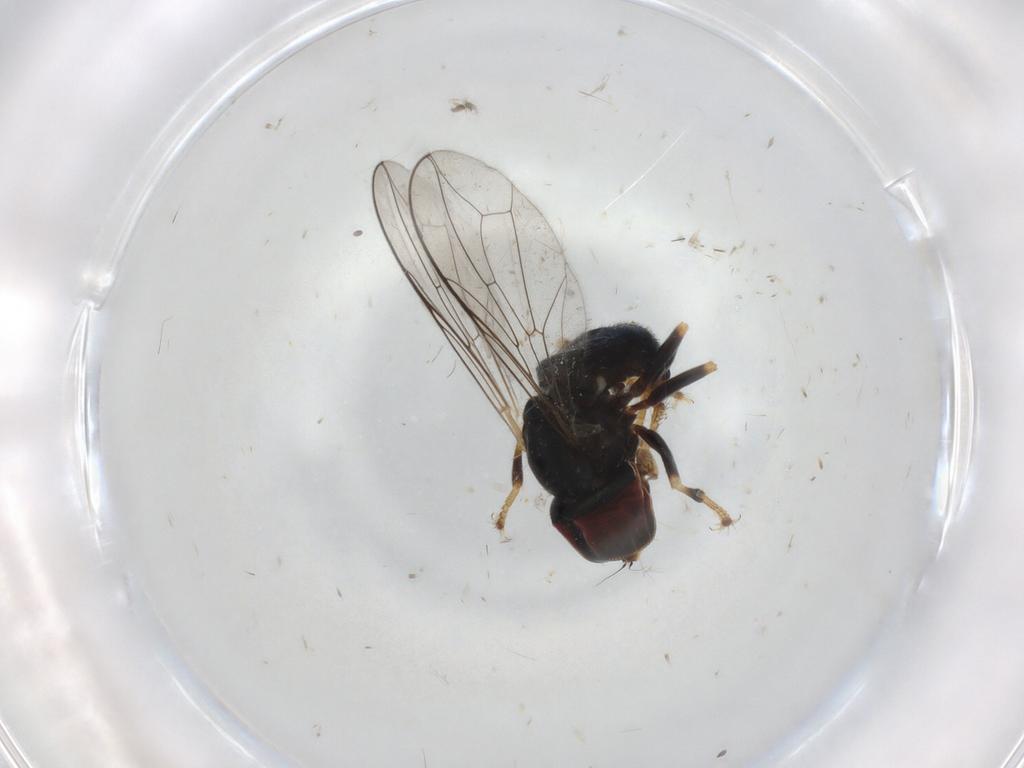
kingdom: Animalia
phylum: Arthropoda
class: Insecta
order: Diptera
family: Pipunculidae
